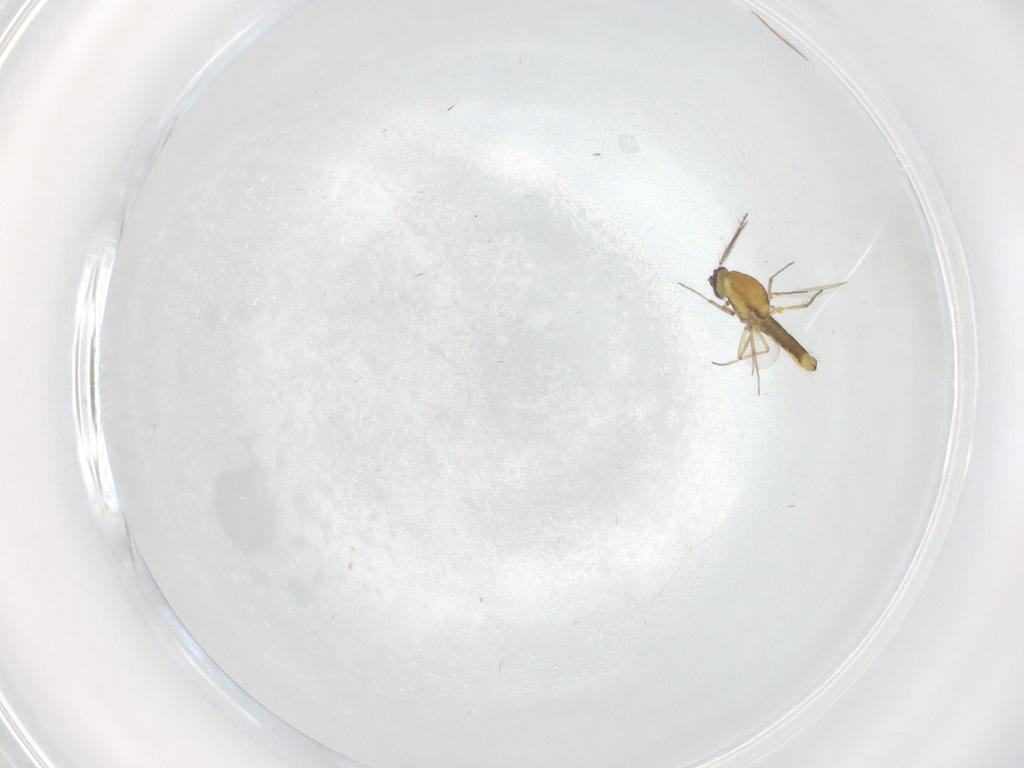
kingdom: Animalia
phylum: Arthropoda
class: Insecta
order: Diptera
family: Ceratopogonidae
